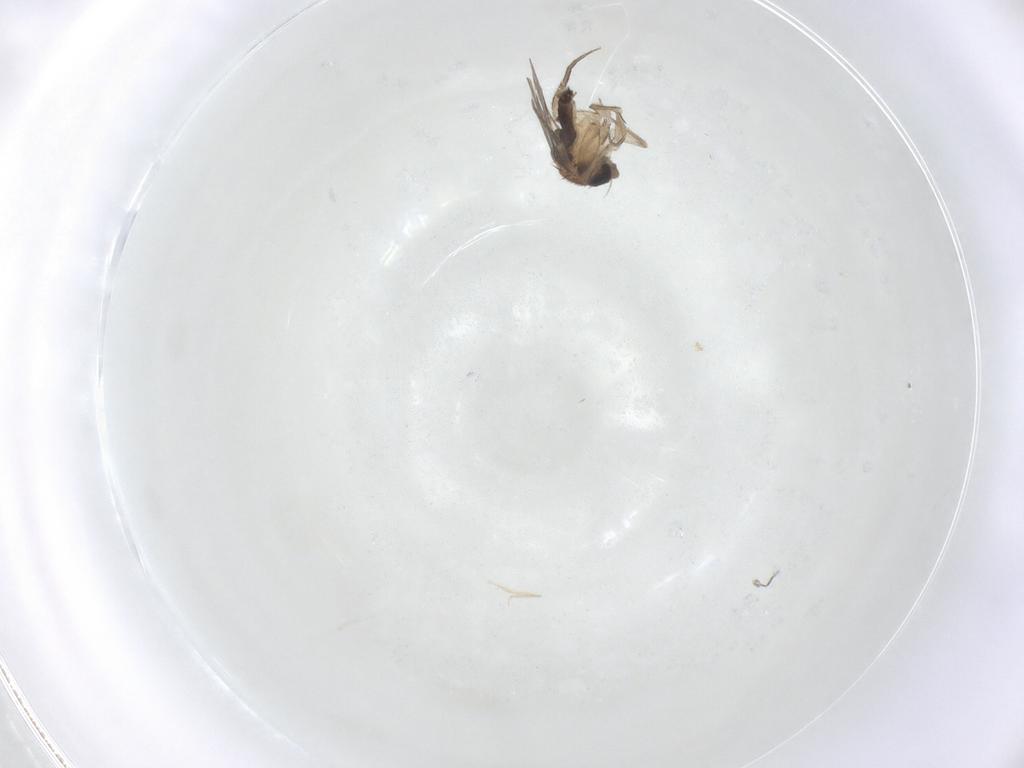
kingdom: Animalia
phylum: Arthropoda
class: Insecta
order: Diptera
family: Phoridae
